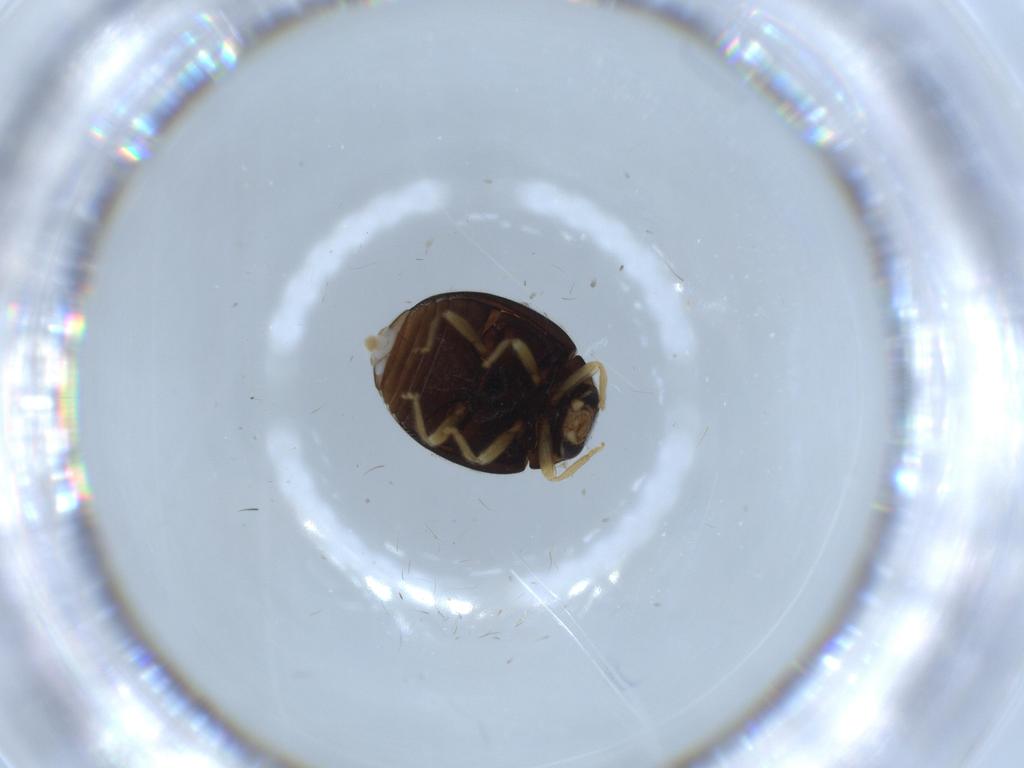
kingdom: Animalia
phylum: Arthropoda
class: Insecta
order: Coleoptera
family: Coccinellidae
